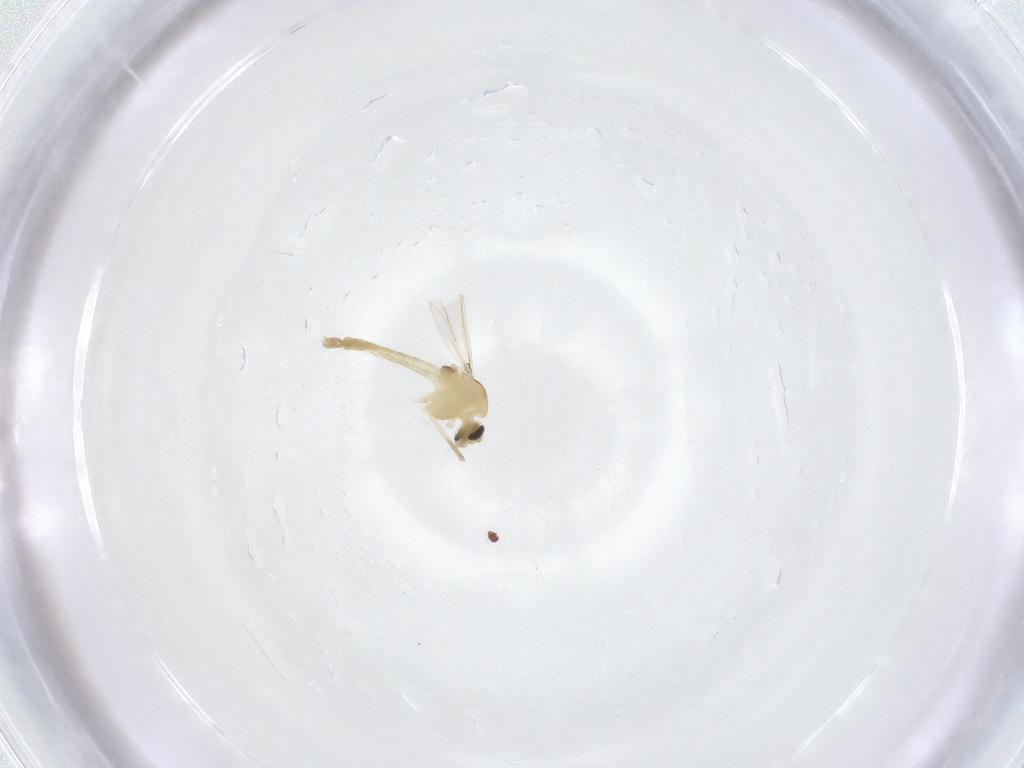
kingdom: Animalia
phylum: Arthropoda
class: Insecta
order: Diptera
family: Chironomidae
